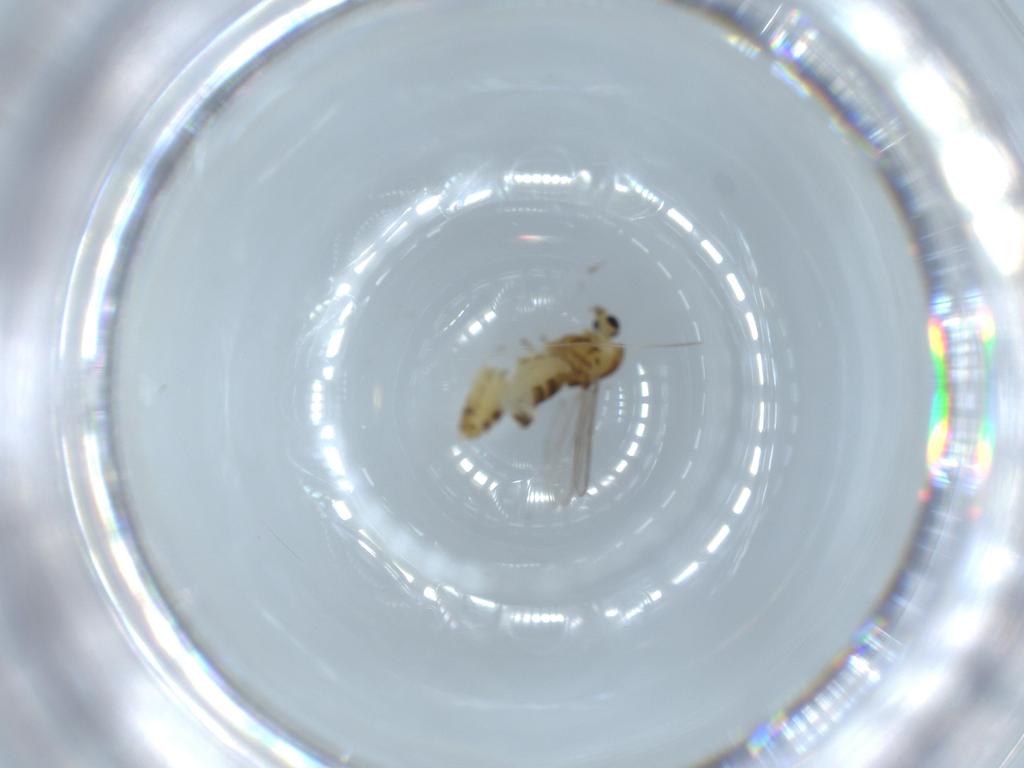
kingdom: Animalia
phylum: Arthropoda
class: Insecta
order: Diptera
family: Chironomidae
